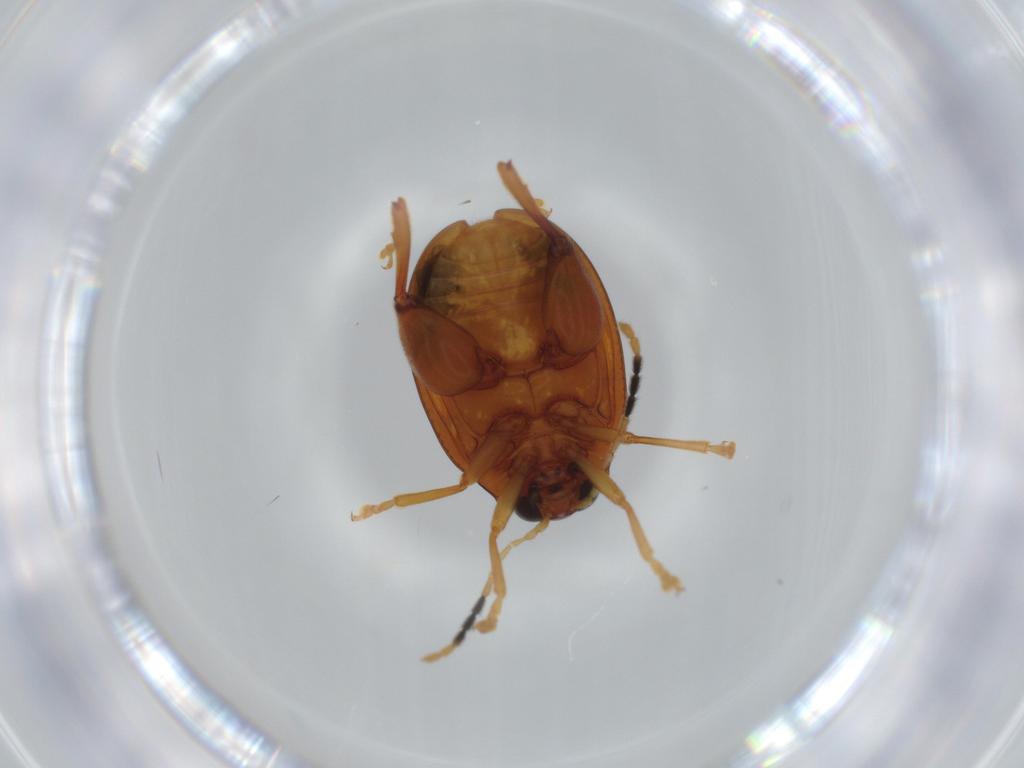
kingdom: Animalia
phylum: Arthropoda
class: Insecta
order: Coleoptera
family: Chrysomelidae
